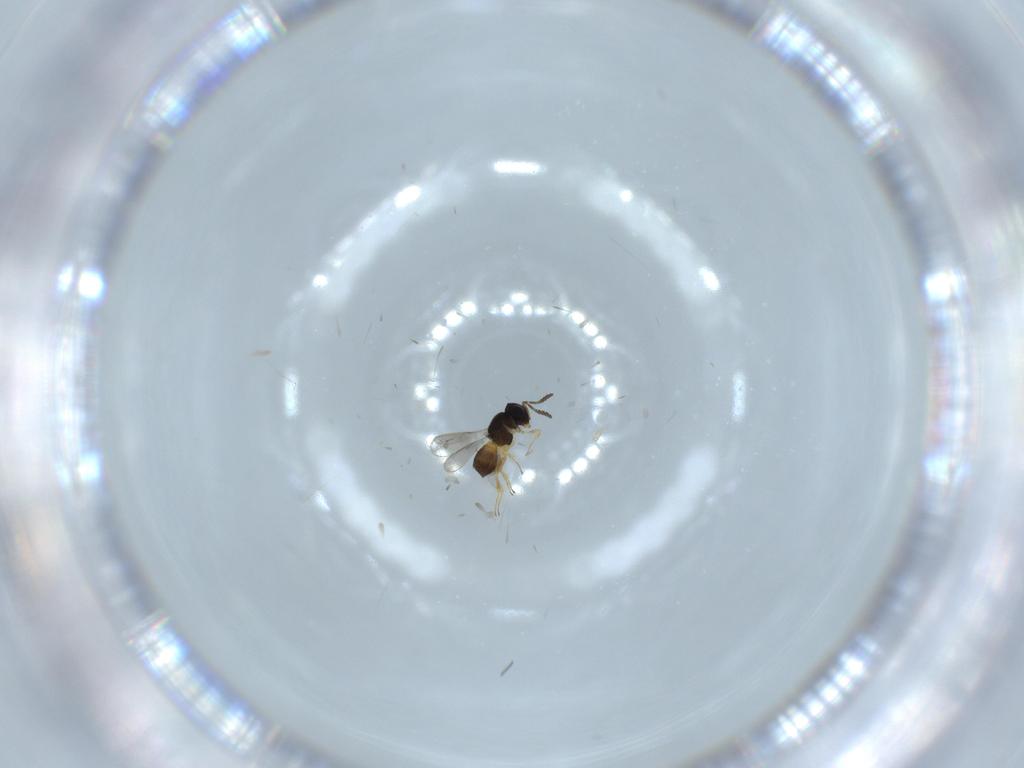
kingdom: Animalia
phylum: Arthropoda
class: Insecta
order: Hymenoptera
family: Scelionidae
